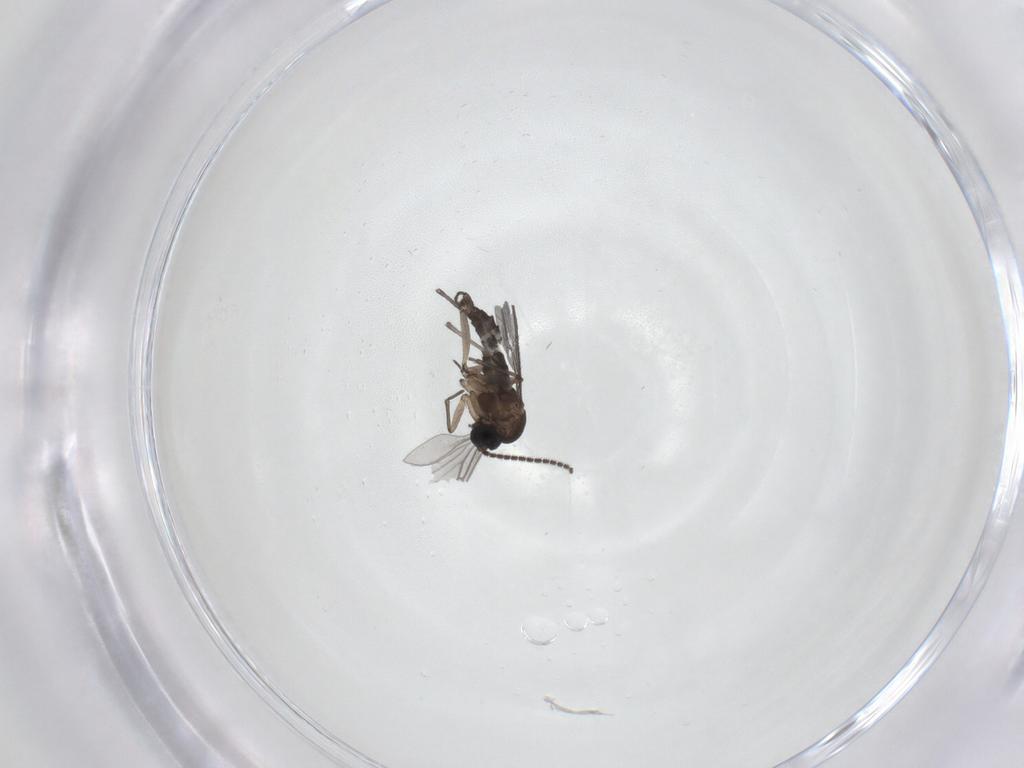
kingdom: Animalia
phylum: Arthropoda
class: Insecta
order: Diptera
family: Sciaridae
